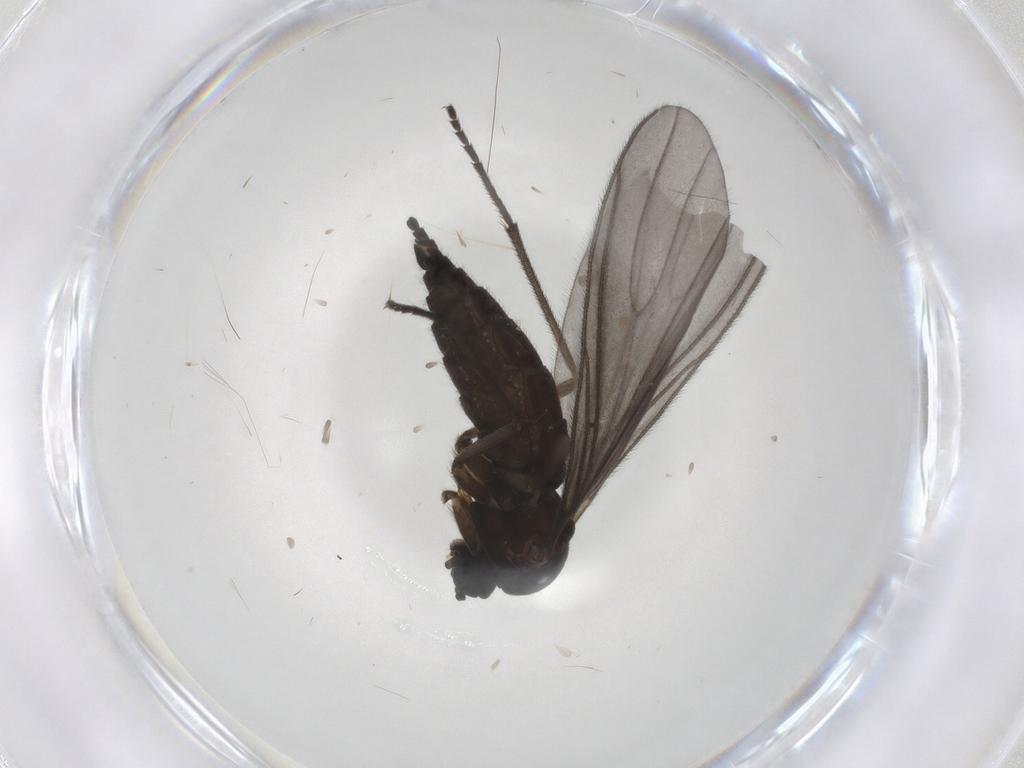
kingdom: Animalia
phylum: Arthropoda
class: Insecta
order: Diptera
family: Sciaridae
